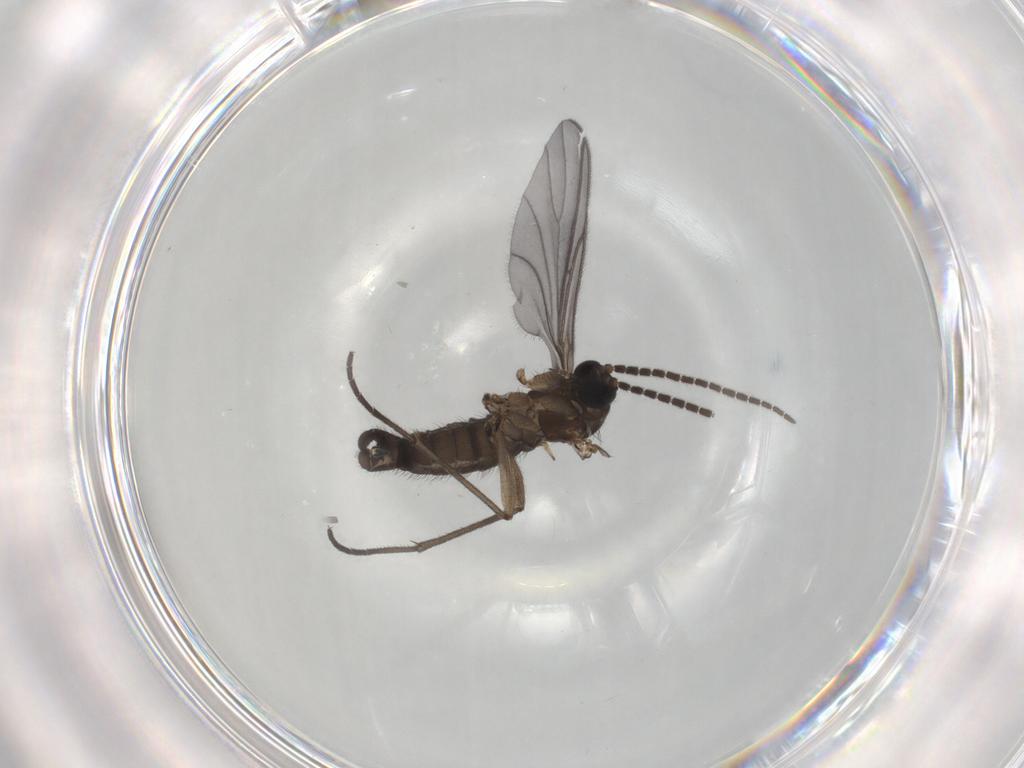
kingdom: Animalia
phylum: Arthropoda
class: Insecta
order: Diptera
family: Sciaridae
